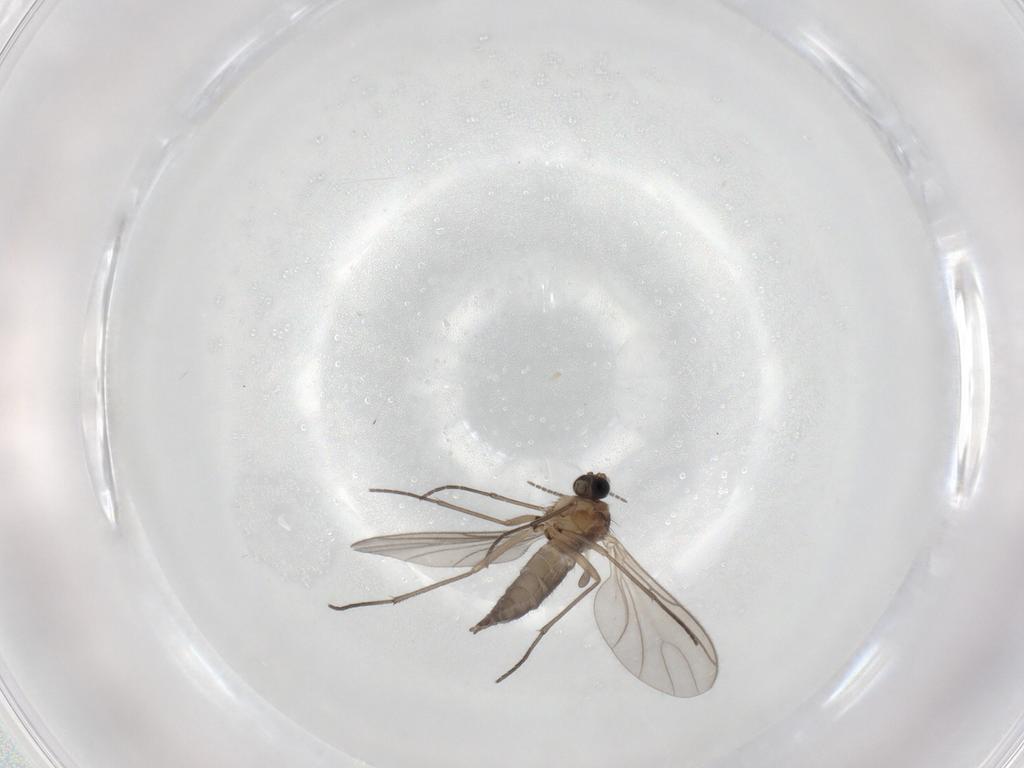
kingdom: Animalia
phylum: Arthropoda
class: Insecta
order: Diptera
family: Sciaridae
